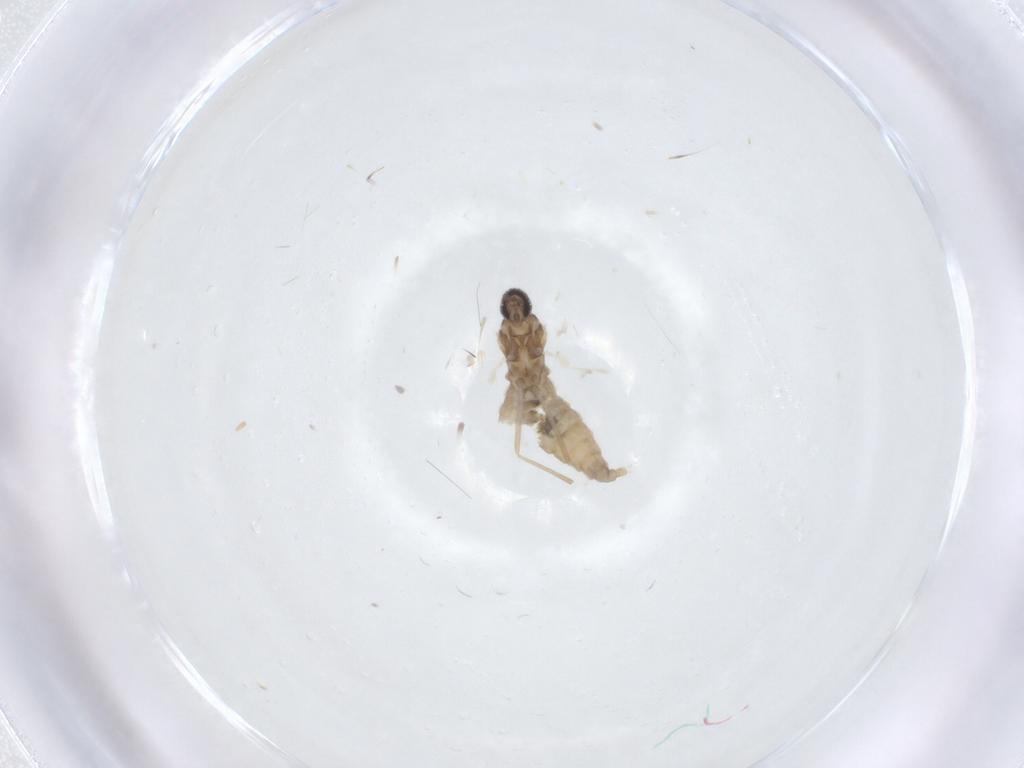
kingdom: Animalia
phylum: Arthropoda
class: Insecta
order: Diptera
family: Cecidomyiidae
